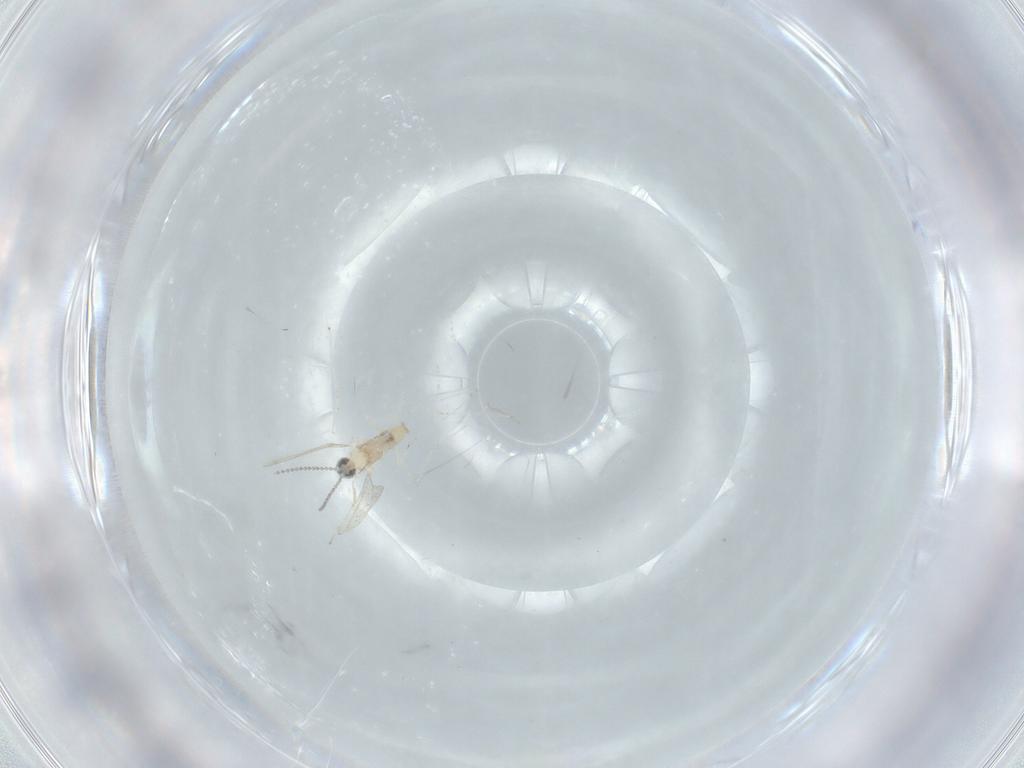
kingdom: Animalia
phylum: Arthropoda
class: Insecta
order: Diptera
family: Cecidomyiidae
